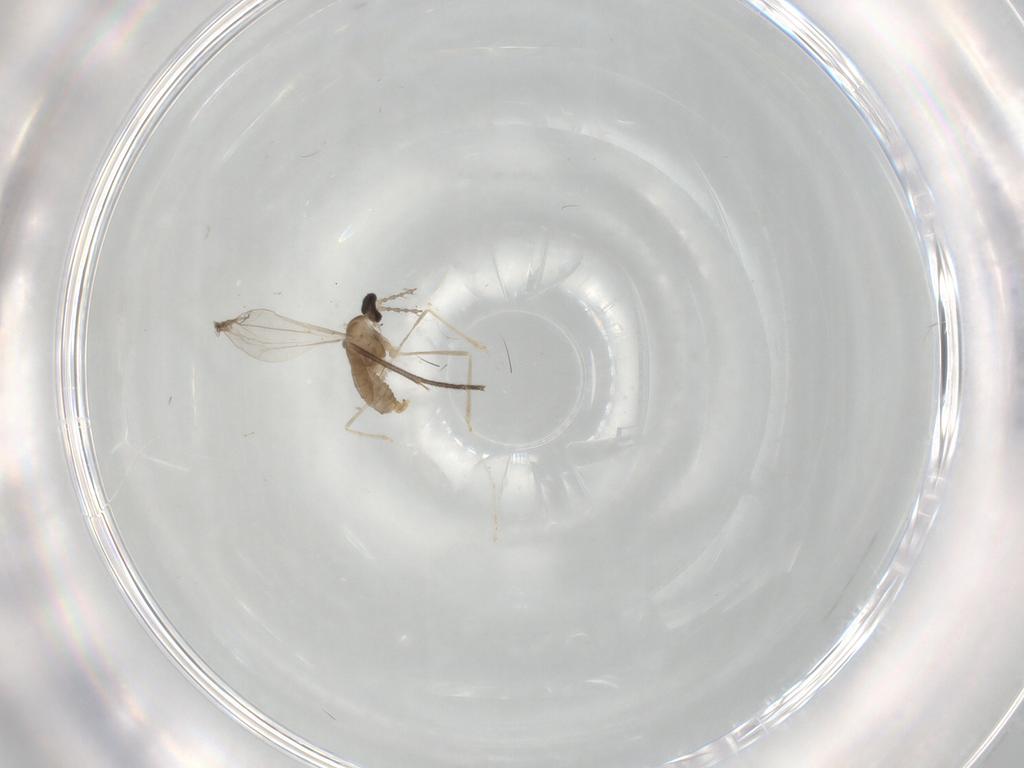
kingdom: Animalia
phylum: Arthropoda
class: Insecta
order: Diptera
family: Cecidomyiidae
